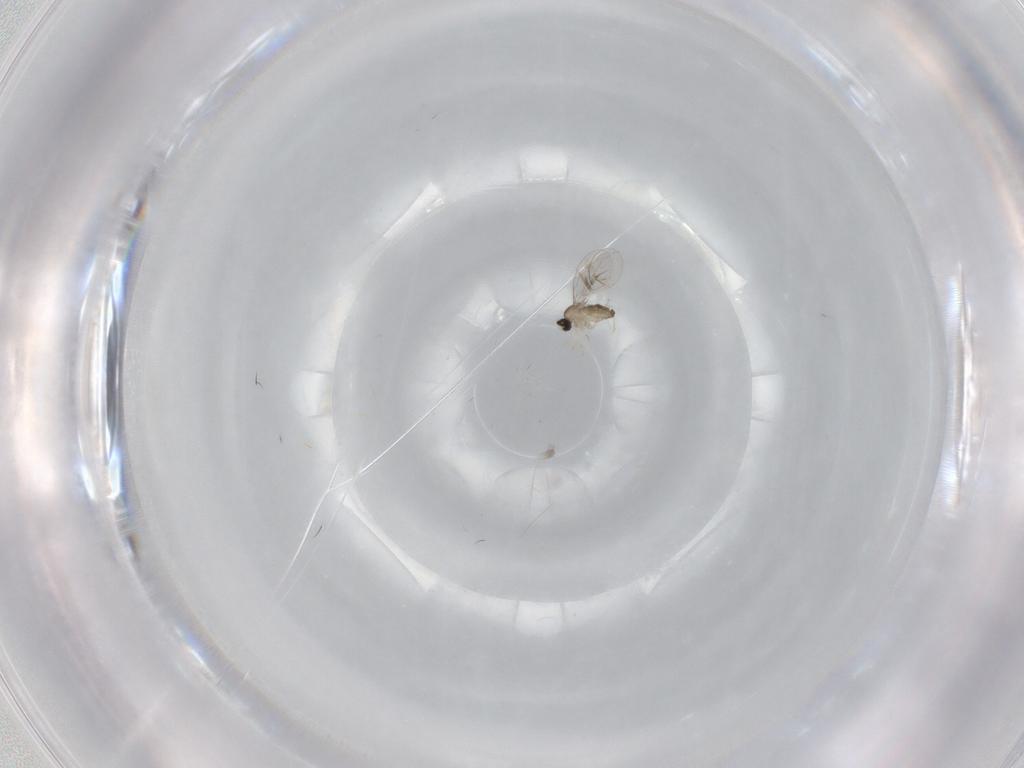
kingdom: Animalia
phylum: Arthropoda
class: Insecta
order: Diptera
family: Cecidomyiidae
